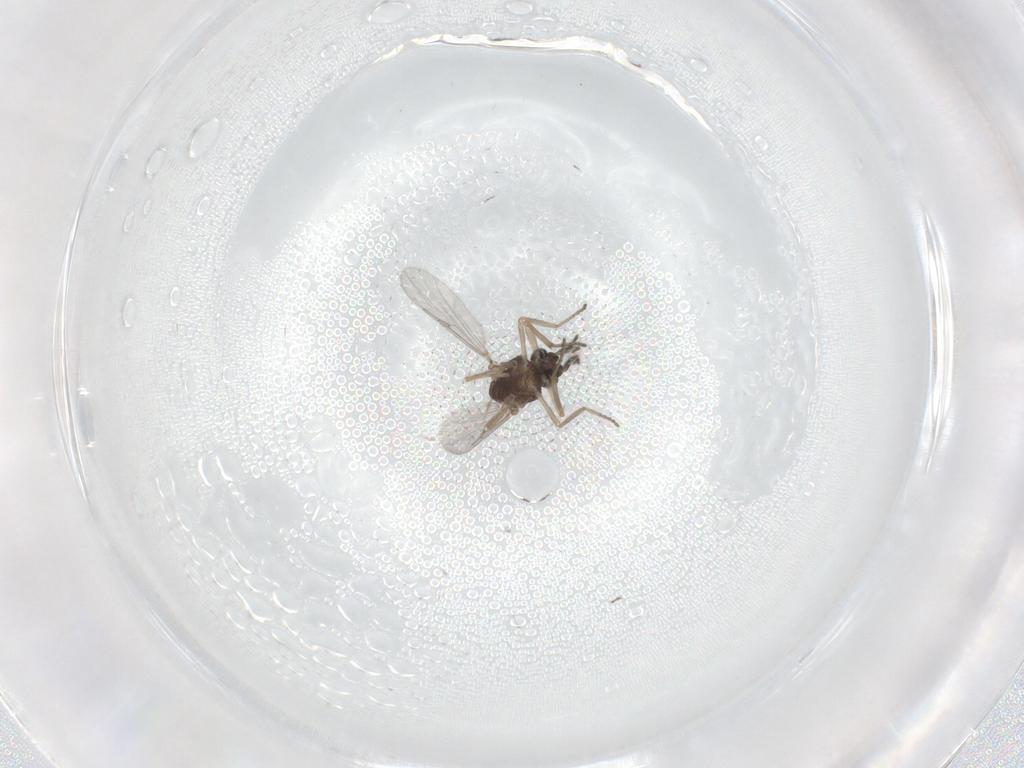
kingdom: Animalia
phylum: Arthropoda
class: Insecta
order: Diptera
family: Ceratopogonidae
